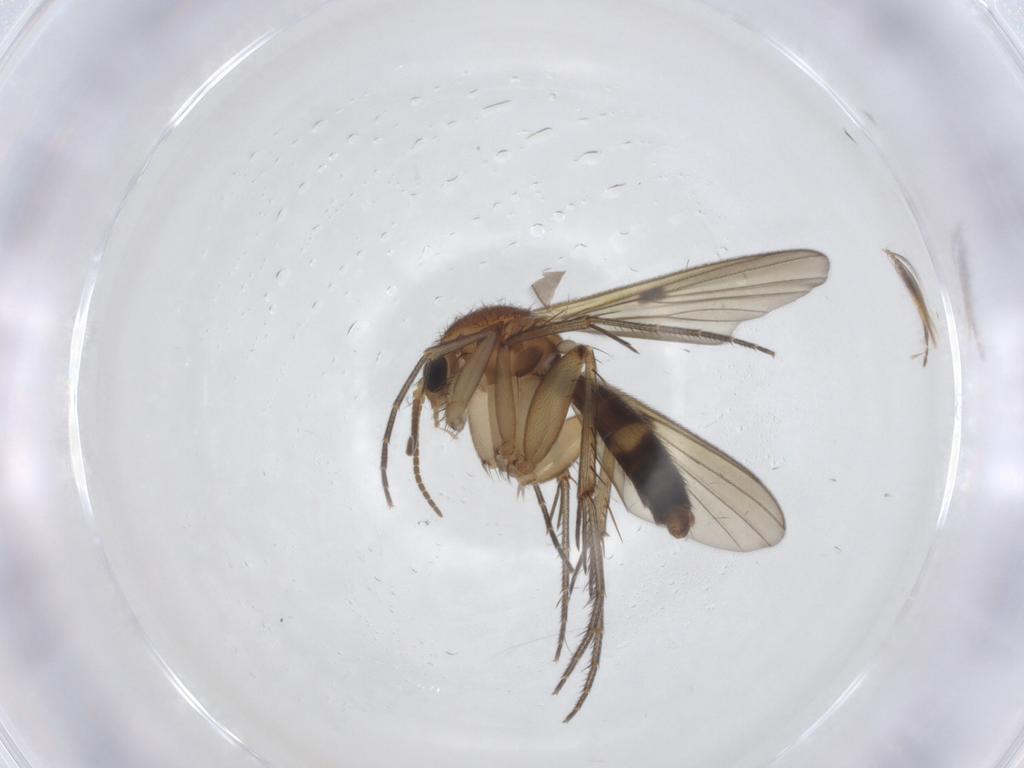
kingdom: Animalia
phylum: Arthropoda
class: Insecta
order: Diptera
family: Mycetophilidae
